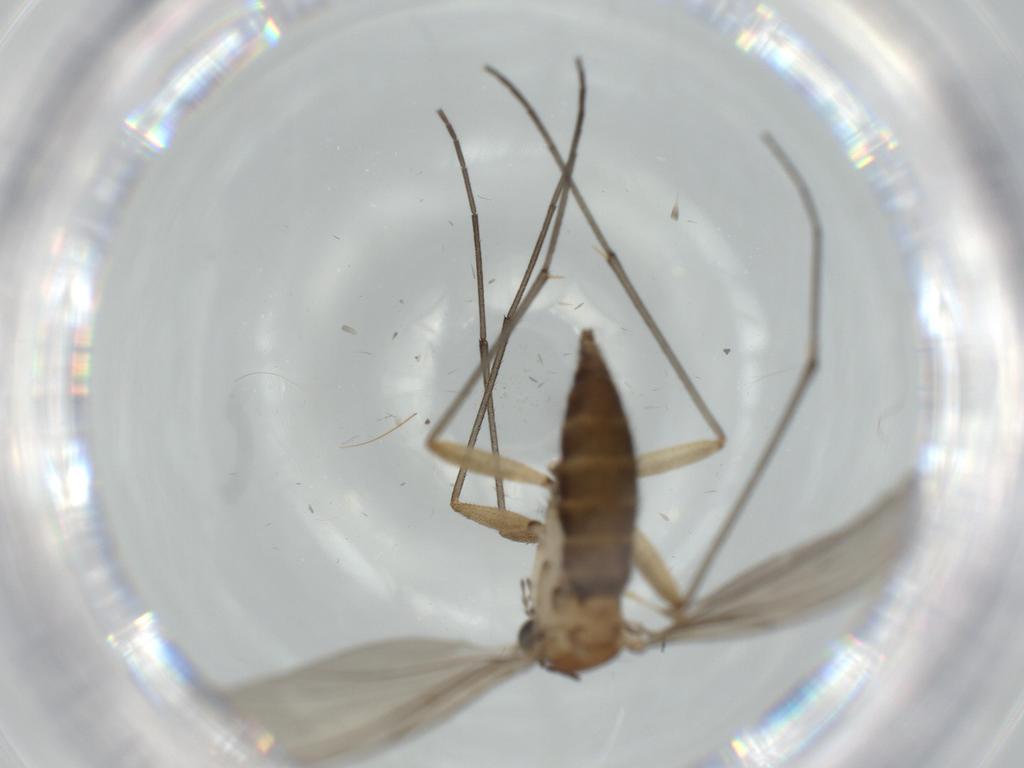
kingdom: Animalia
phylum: Arthropoda
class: Insecta
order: Diptera
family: Sciaridae
